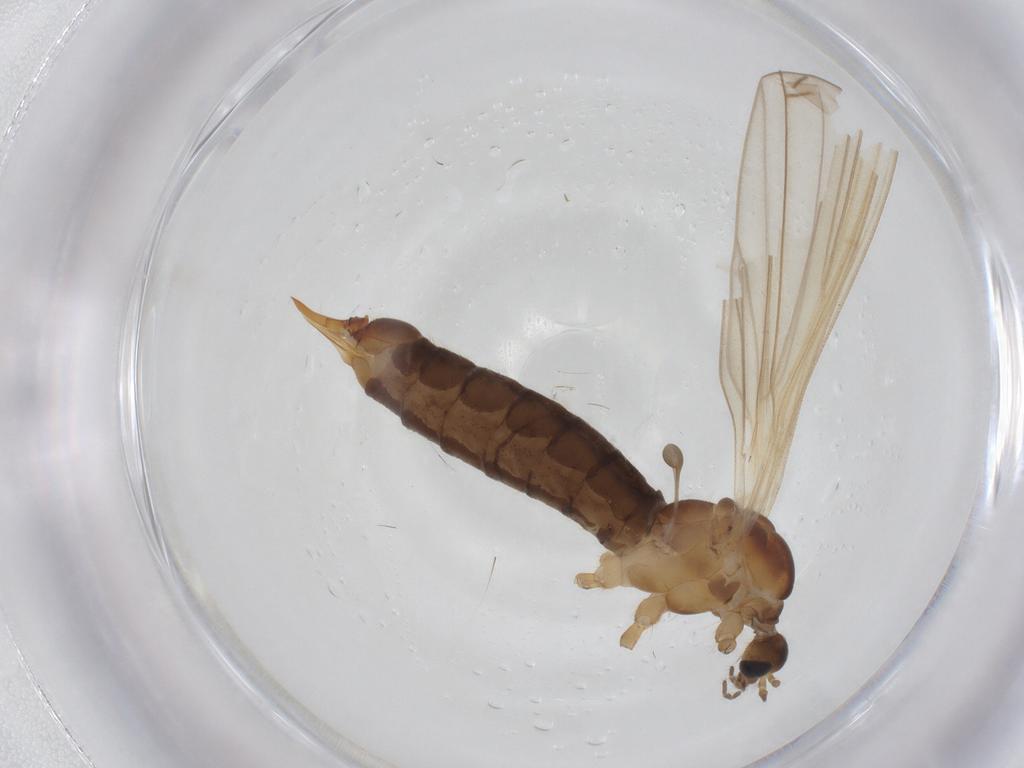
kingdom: Animalia
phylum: Arthropoda
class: Insecta
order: Diptera
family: Limoniidae
